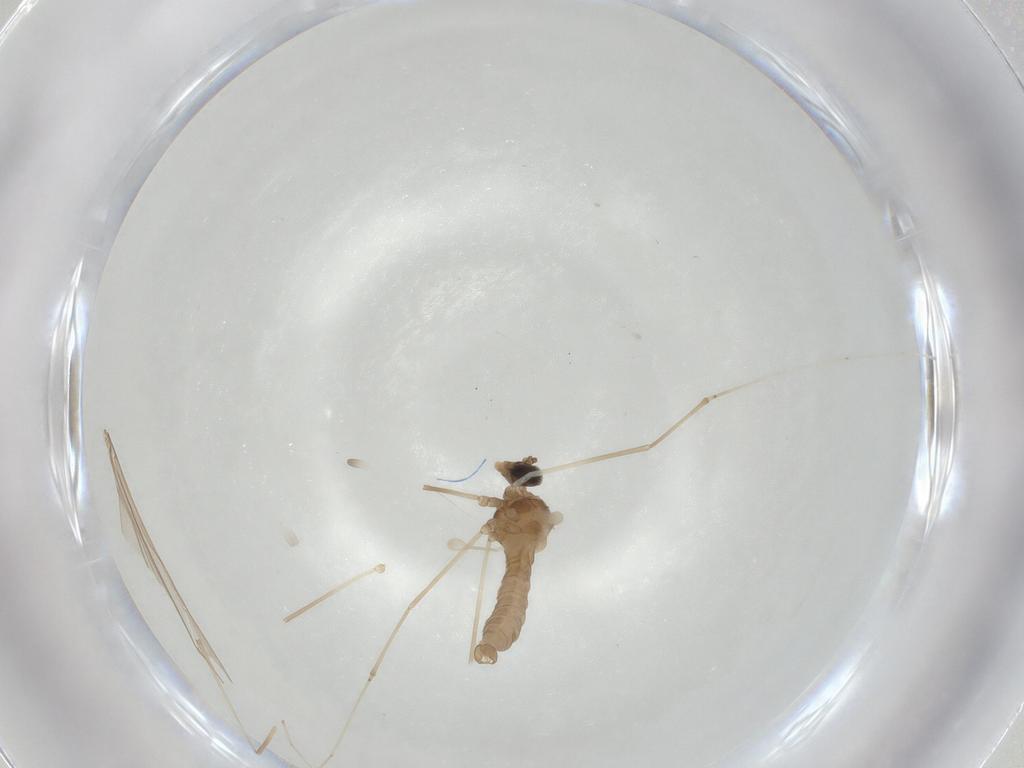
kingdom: Animalia
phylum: Arthropoda
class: Insecta
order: Diptera
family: Cecidomyiidae
